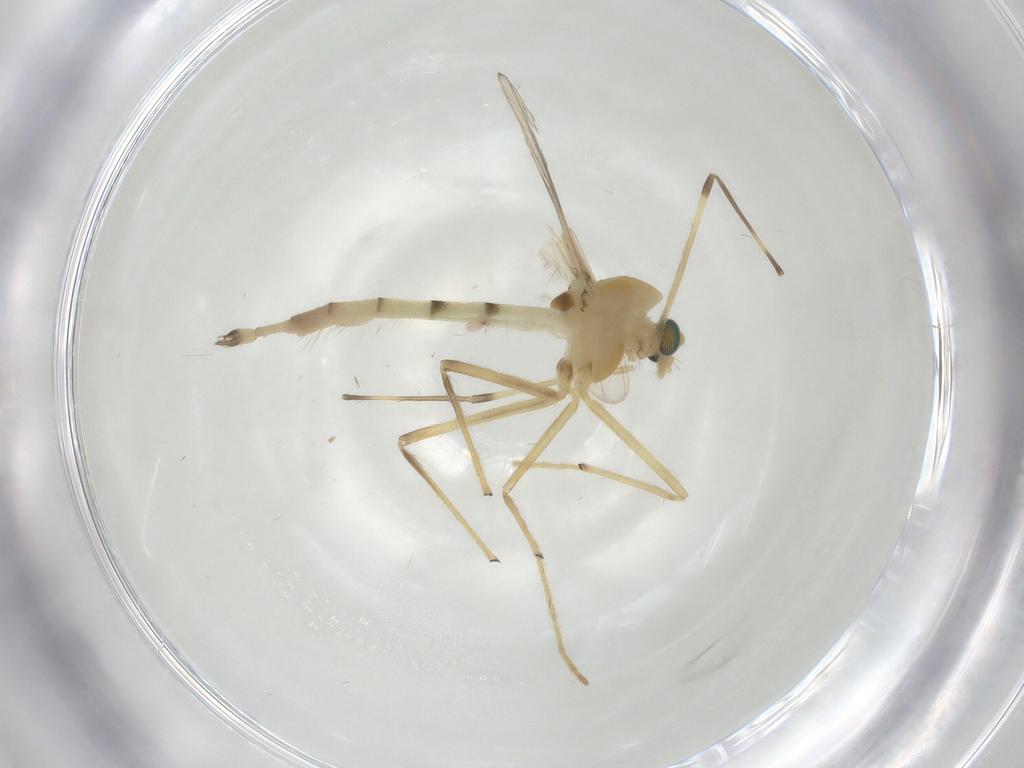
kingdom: Animalia
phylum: Arthropoda
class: Insecta
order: Diptera
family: Chironomidae
